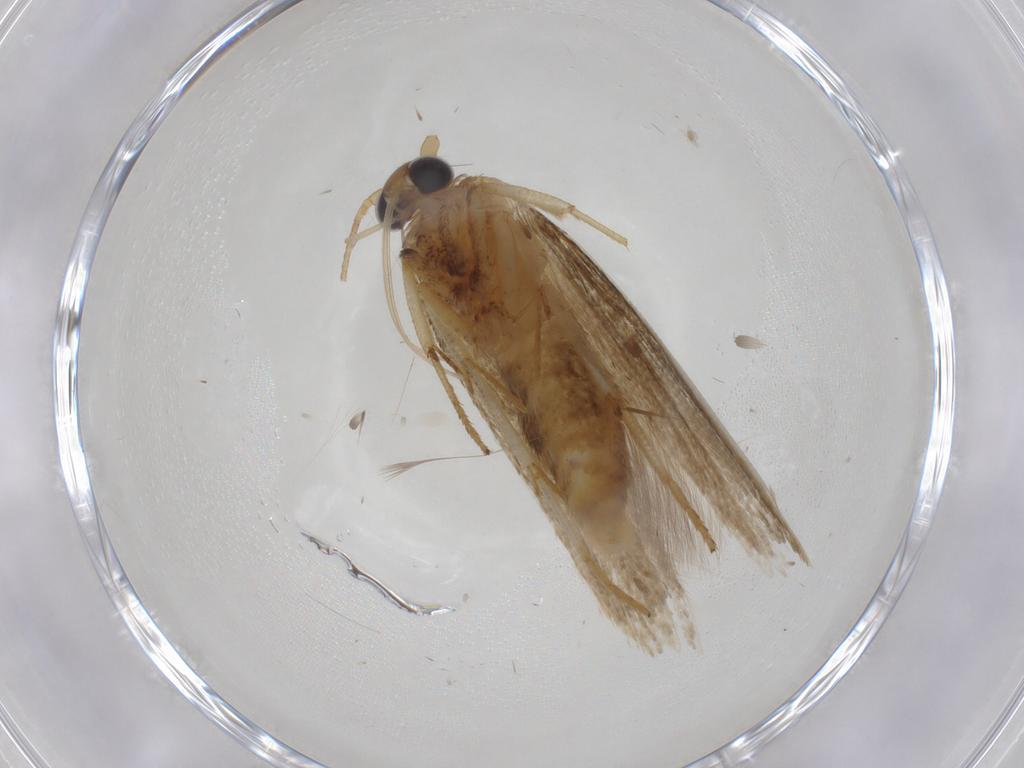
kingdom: Animalia
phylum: Arthropoda
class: Insecta
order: Lepidoptera
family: Blastobasidae
